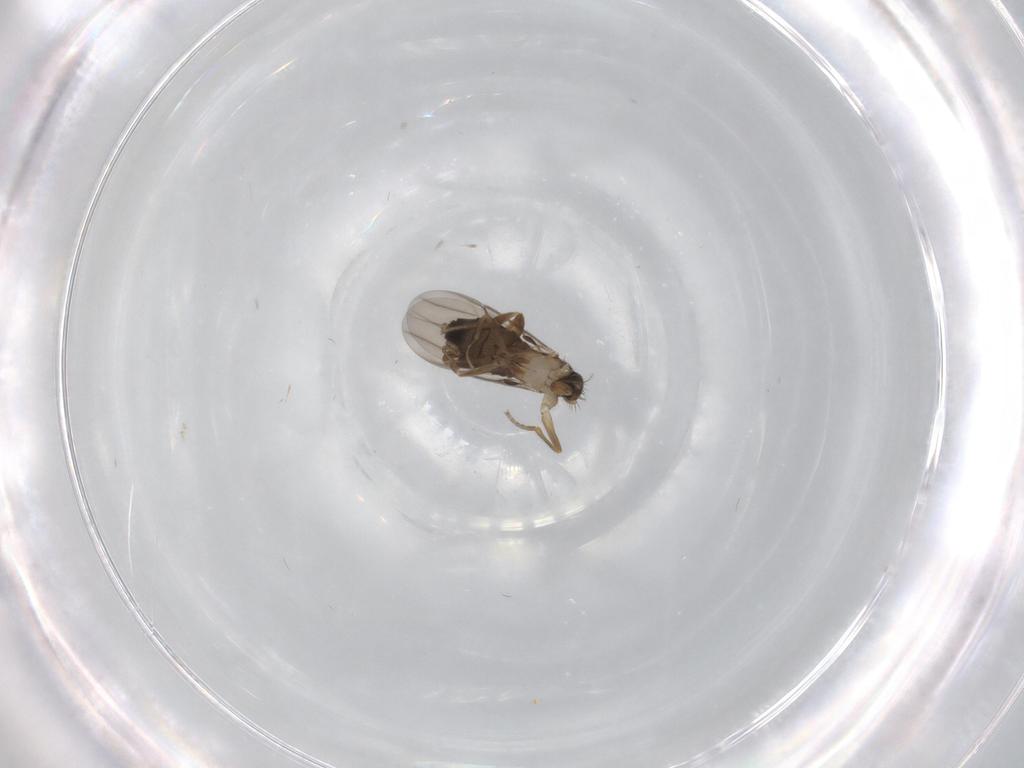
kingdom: Animalia
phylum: Arthropoda
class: Insecta
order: Diptera
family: Phoridae
